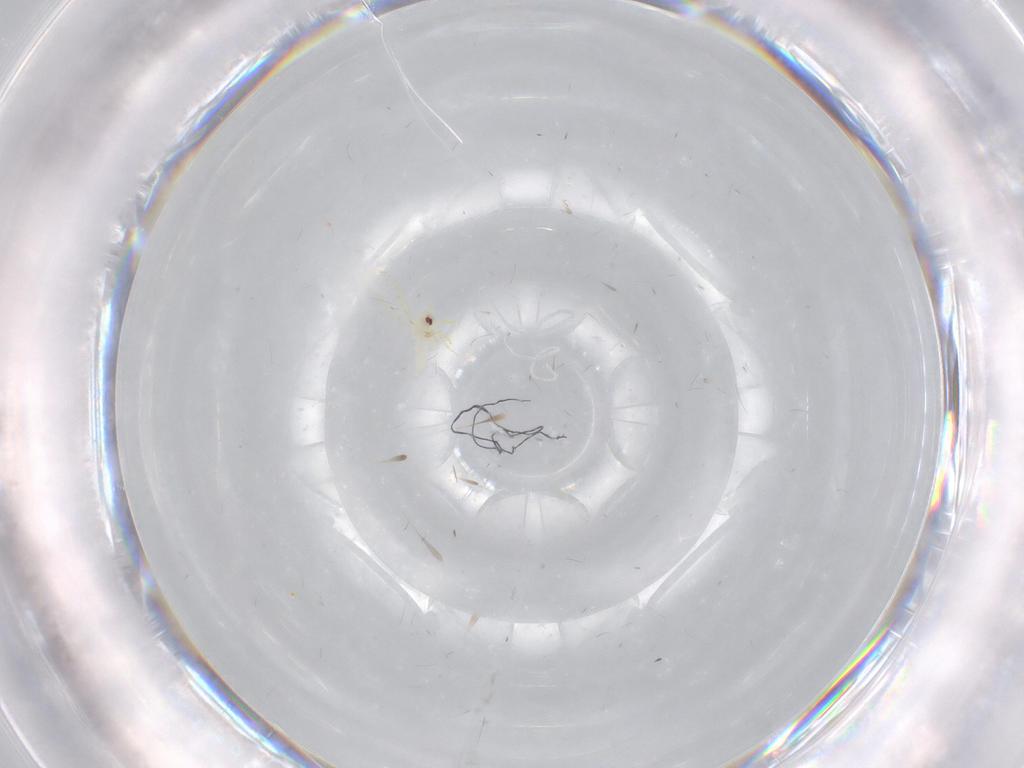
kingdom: Animalia
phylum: Arthropoda
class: Insecta
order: Hemiptera
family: Aleyrodidae
